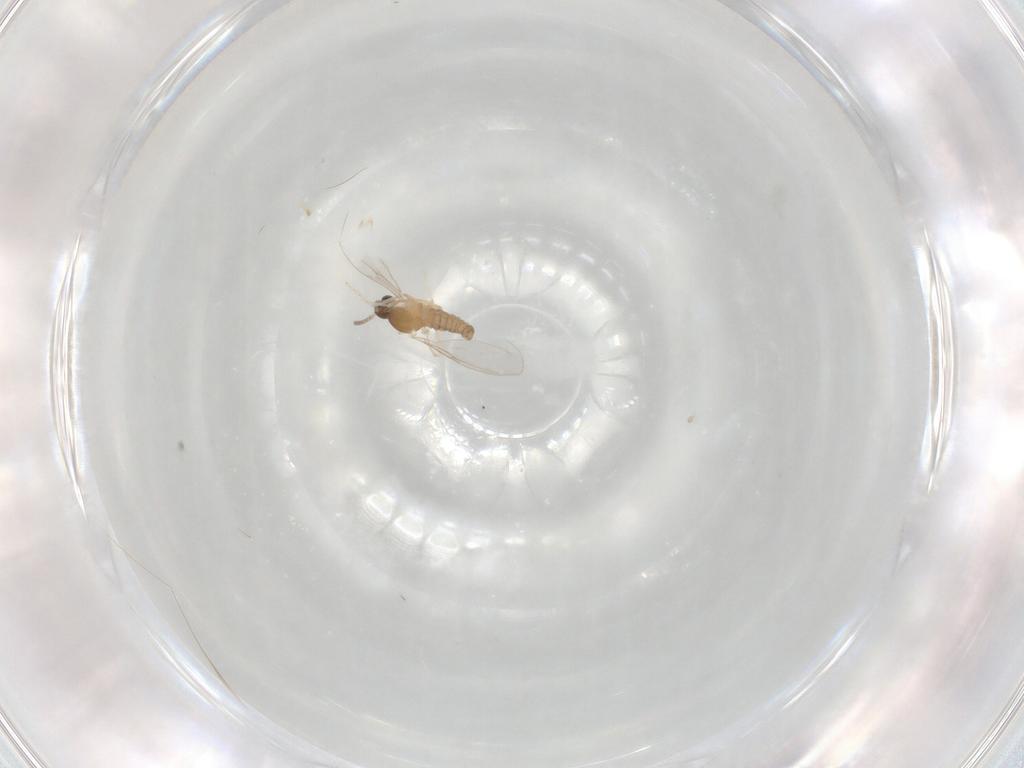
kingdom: Animalia
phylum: Arthropoda
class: Insecta
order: Diptera
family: Cecidomyiidae
